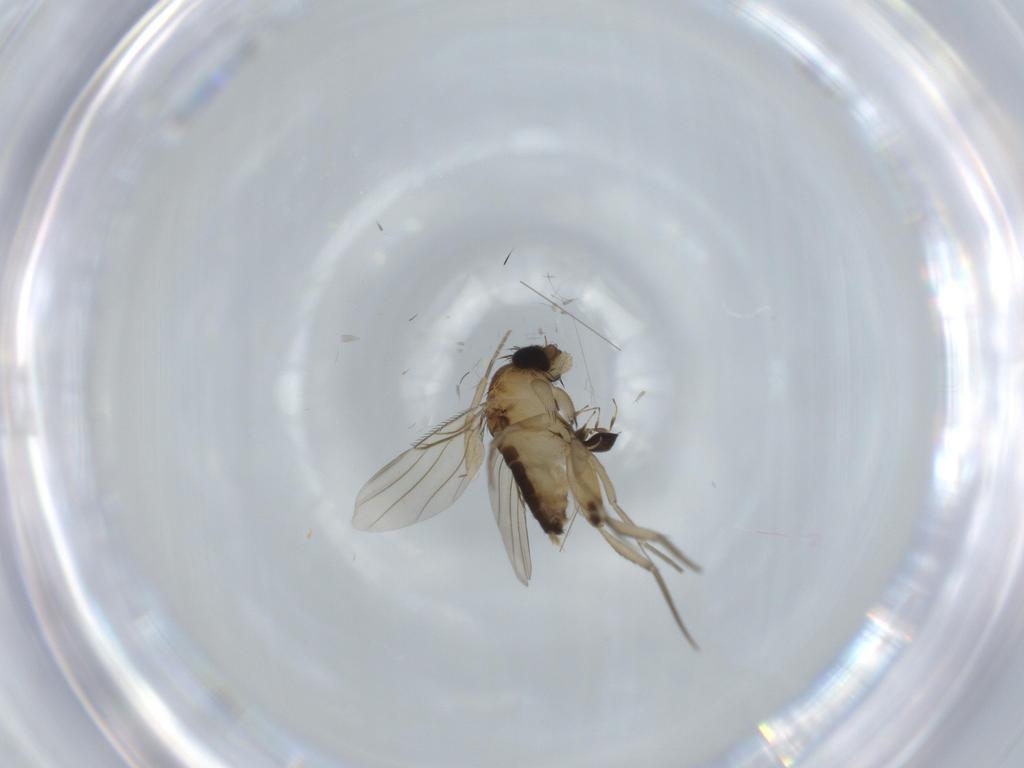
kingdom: Animalia
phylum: Arthropoda
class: Insecta
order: Diptera
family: Phoridae
